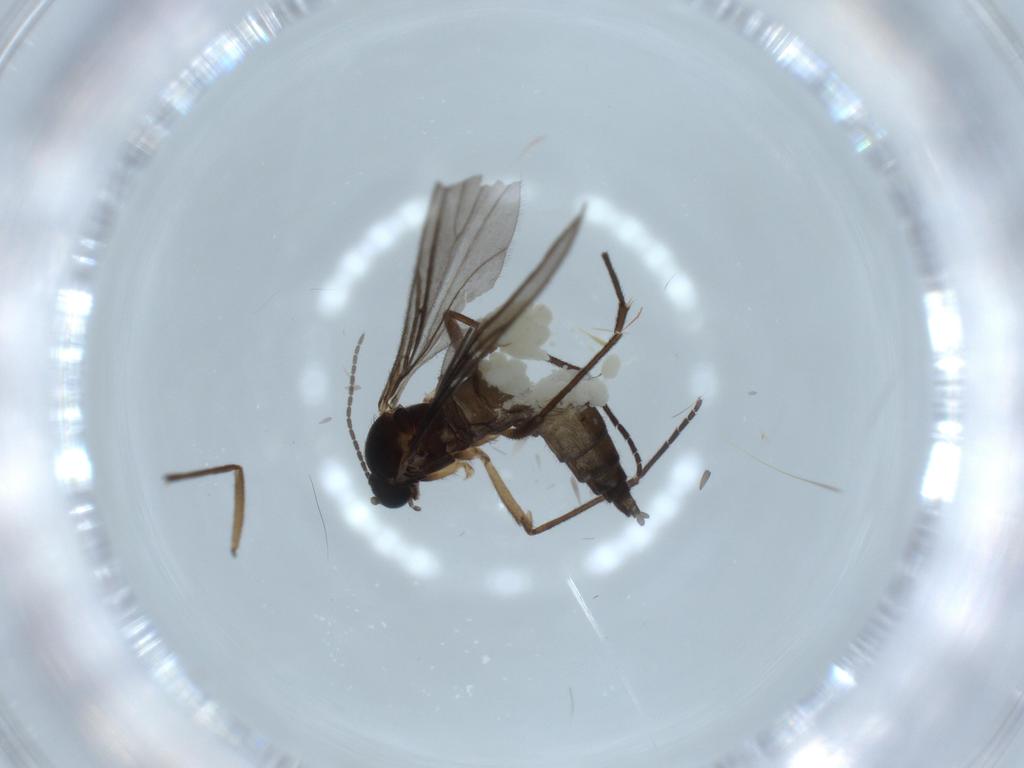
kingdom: Animalia
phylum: Arthropoda
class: Insecta
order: Diptera
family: Sciaridae
